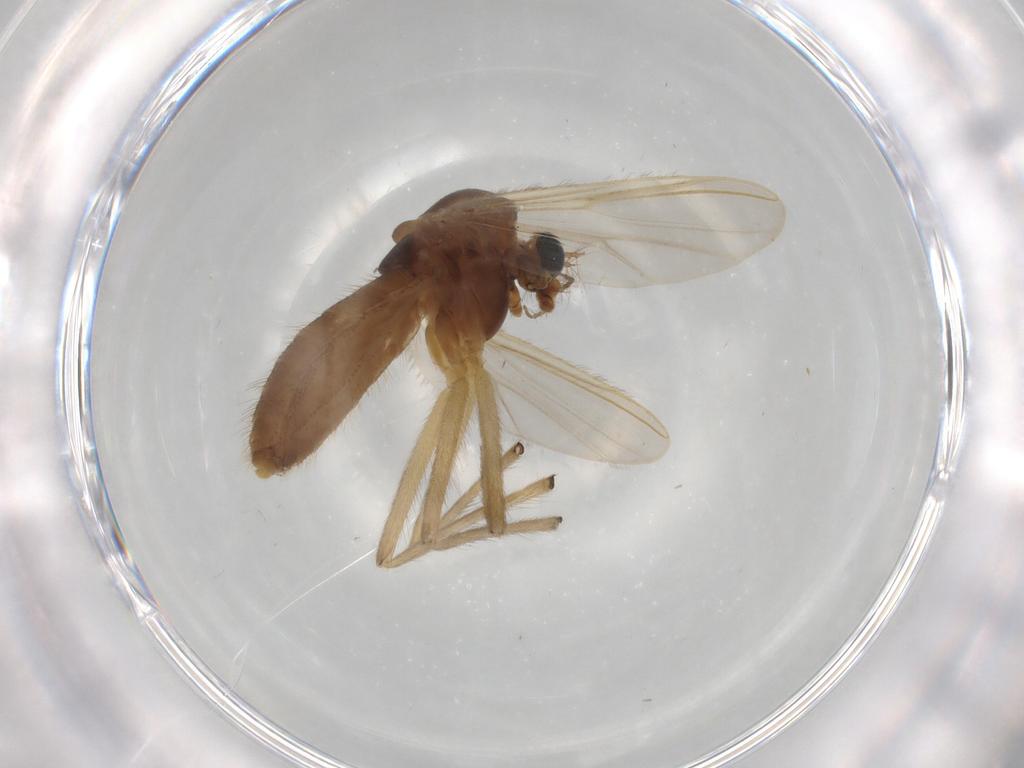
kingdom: Animalia
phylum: Arthropoda
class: Insecta
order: Diptera
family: Chironomidae
